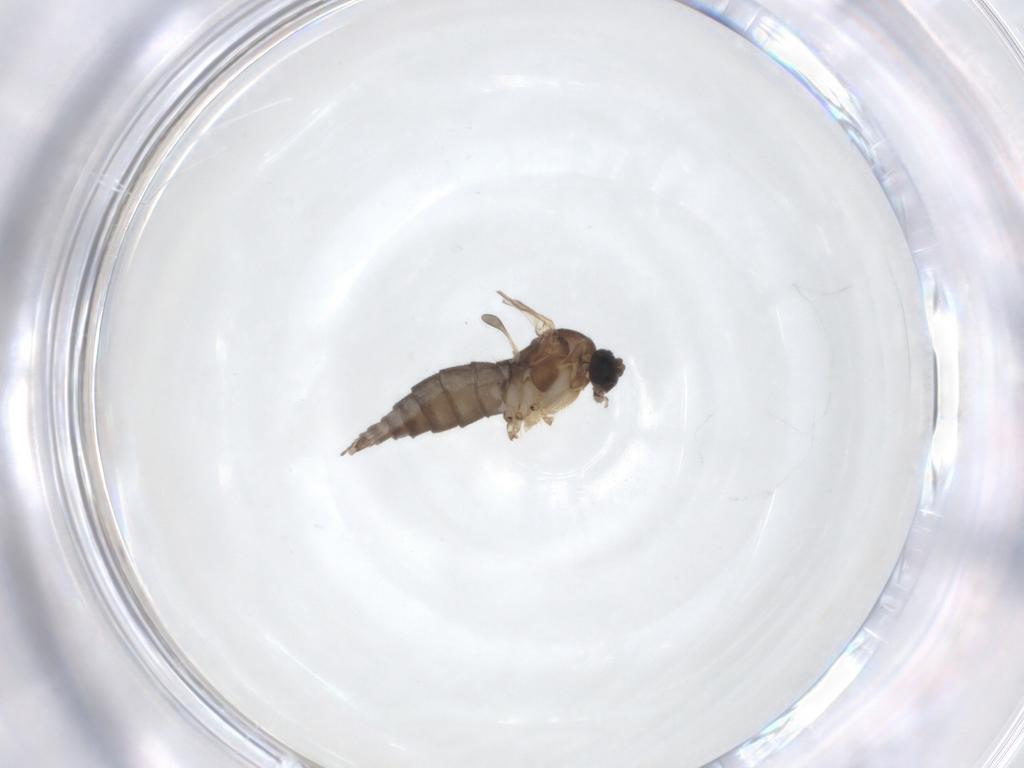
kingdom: Animalia
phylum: Arthropoda
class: Insecta
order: Diptera
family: Sciaridae
